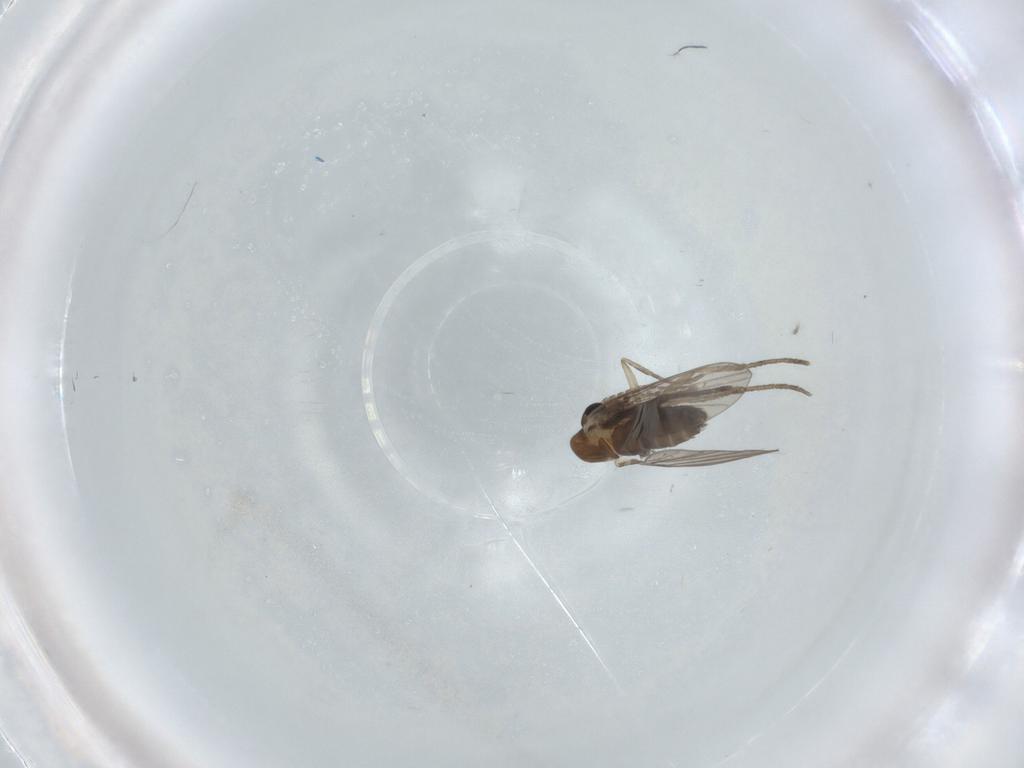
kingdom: Animalia
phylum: Arthropoda
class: Insecta
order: Diptera
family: Psychodidae
